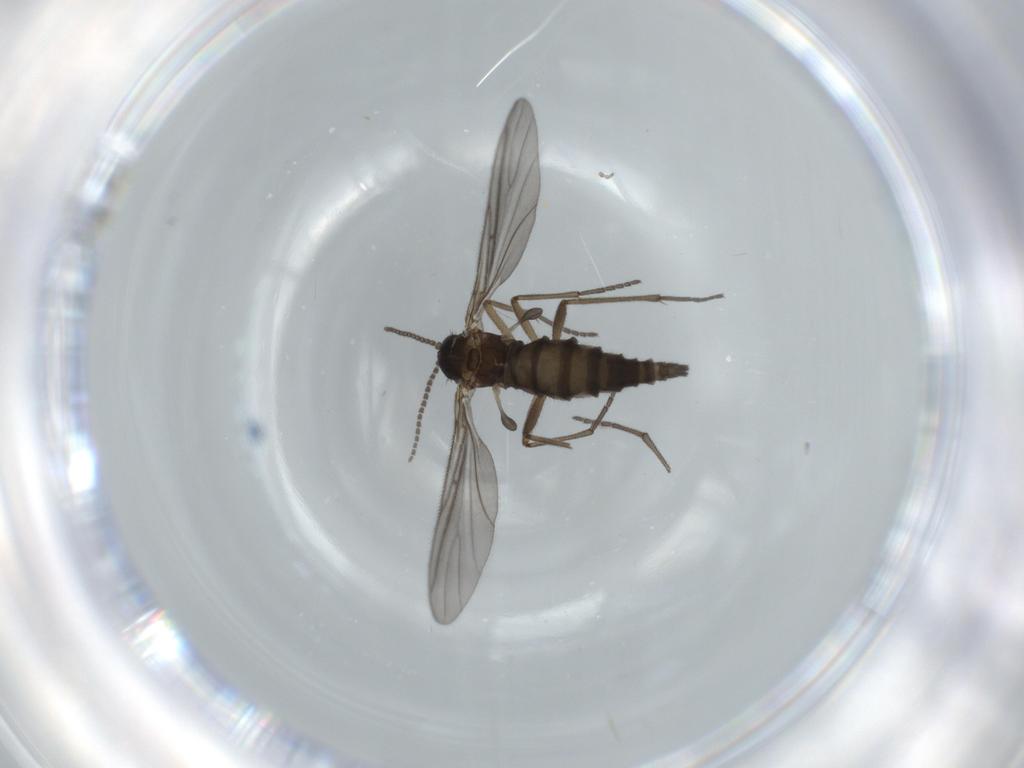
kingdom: Animalia
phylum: Arthropoda
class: Insecta
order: Diptera
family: Sciaridae
